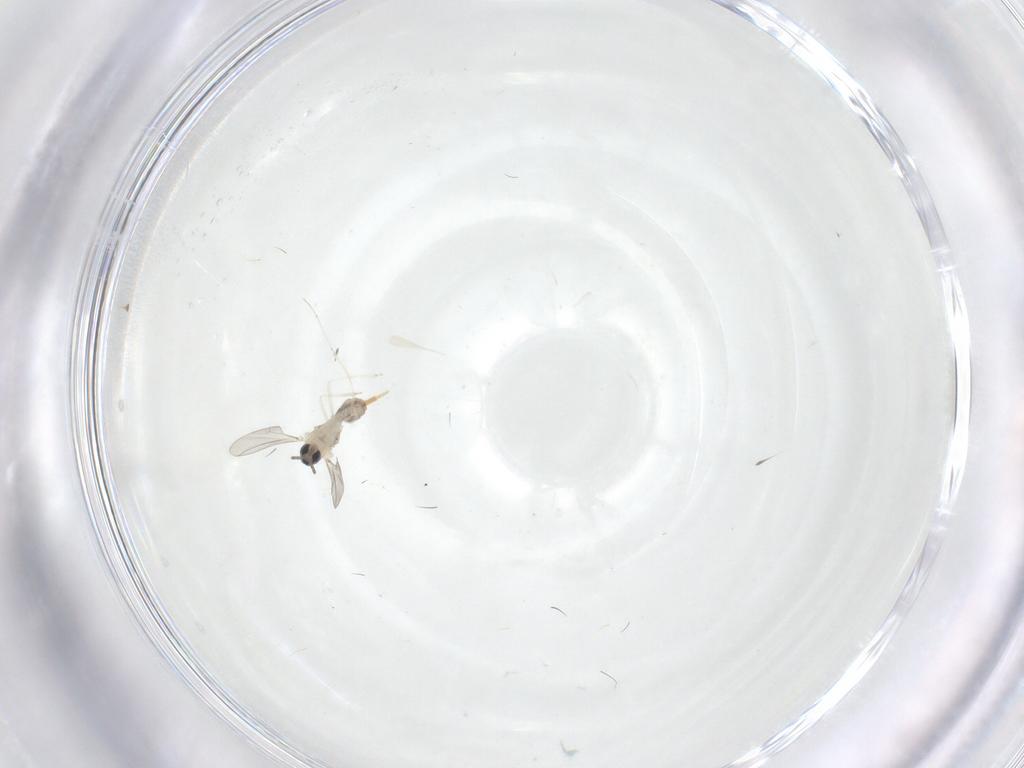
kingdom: Animalia
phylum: Arthropoda
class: Insecta
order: Diptera
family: Cecidomyiidae
